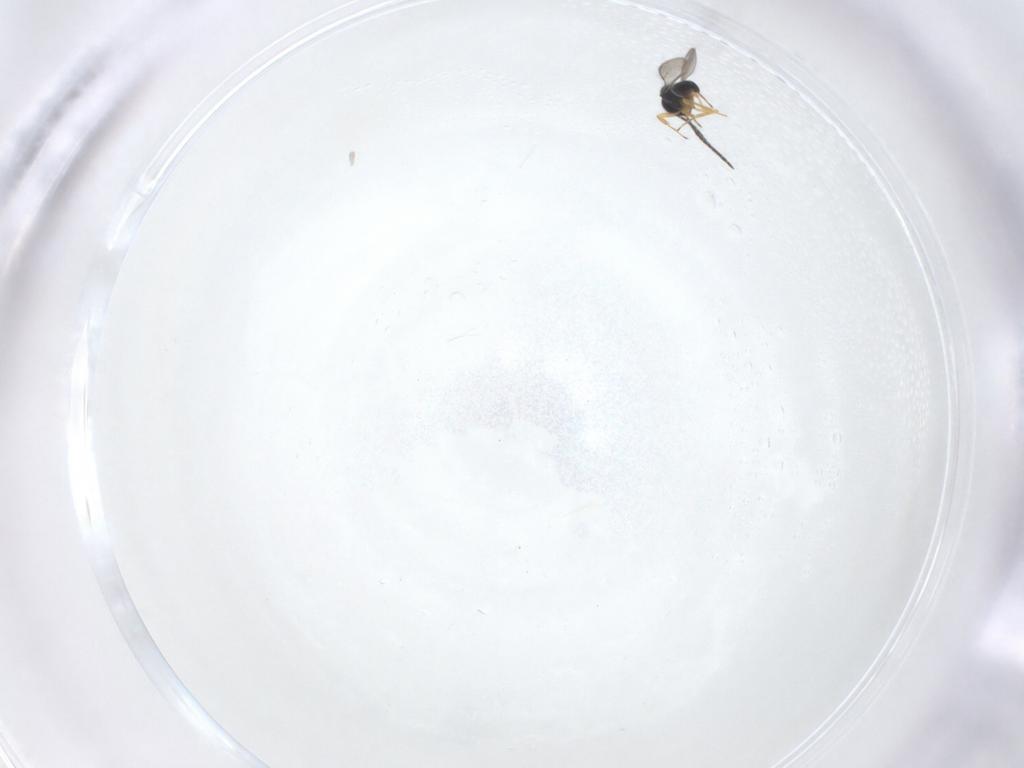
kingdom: Animalia
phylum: Arthropoda
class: Insecta
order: Hymenoptera
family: Scelionidae
